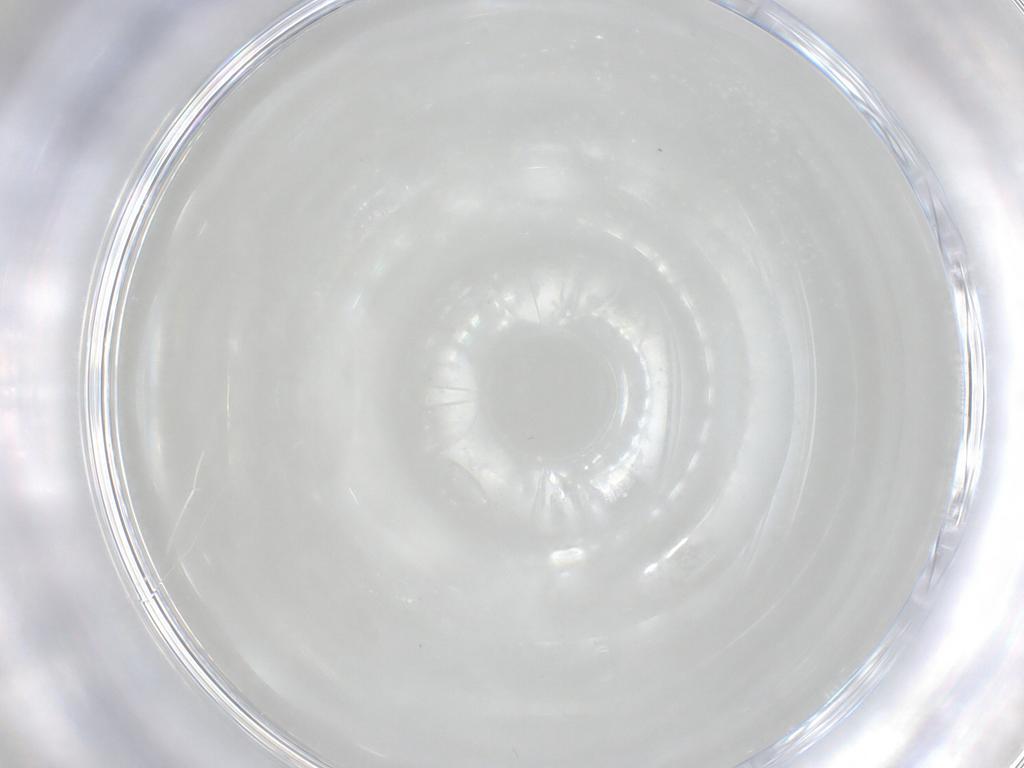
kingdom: Animalia
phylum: Arthropoda
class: Insecta
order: Hymenoptera
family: Scelionidae
